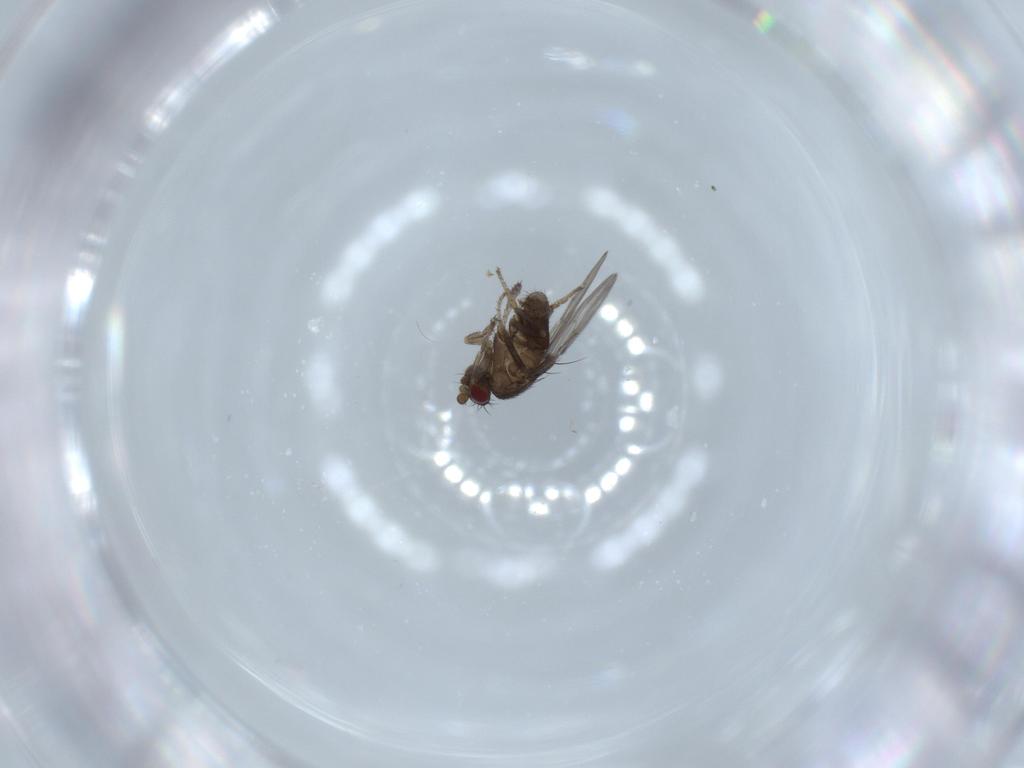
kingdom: Animalia
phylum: Arthropoda
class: Insecta
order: Diptera
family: Sphaeroceridae
